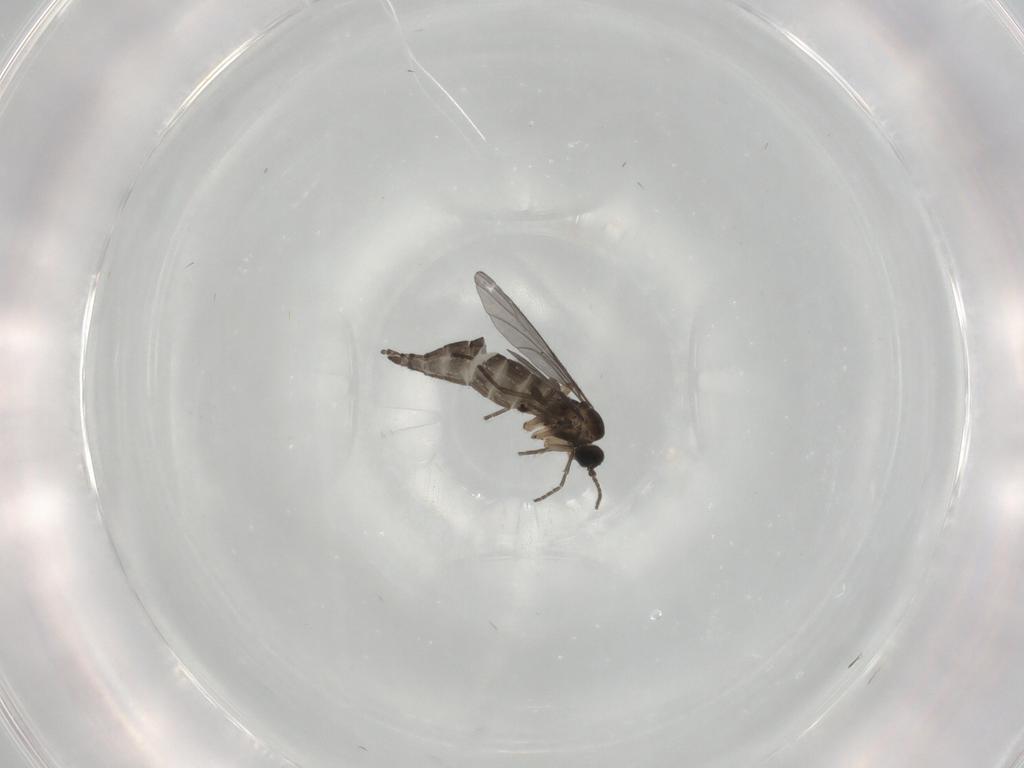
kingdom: Animalia
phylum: Arthropoda
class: Insecta
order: Diptera
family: Sciaridae
